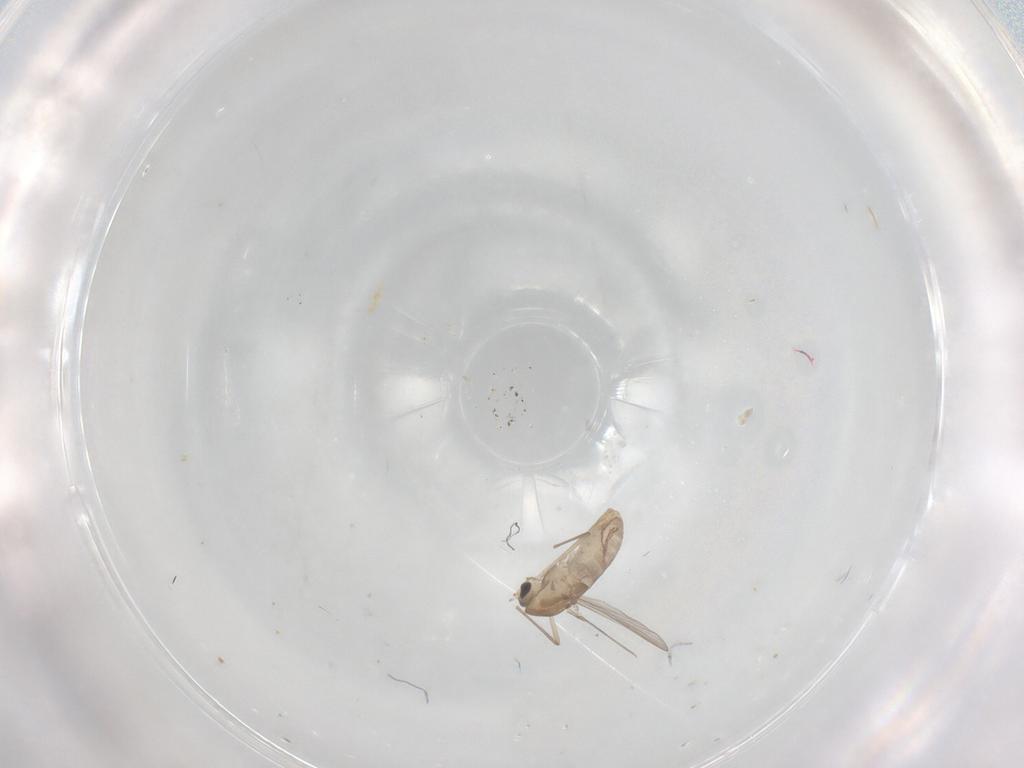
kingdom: Animalia
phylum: Arthropoda
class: Insecta
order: Diptera
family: Chironomidae
